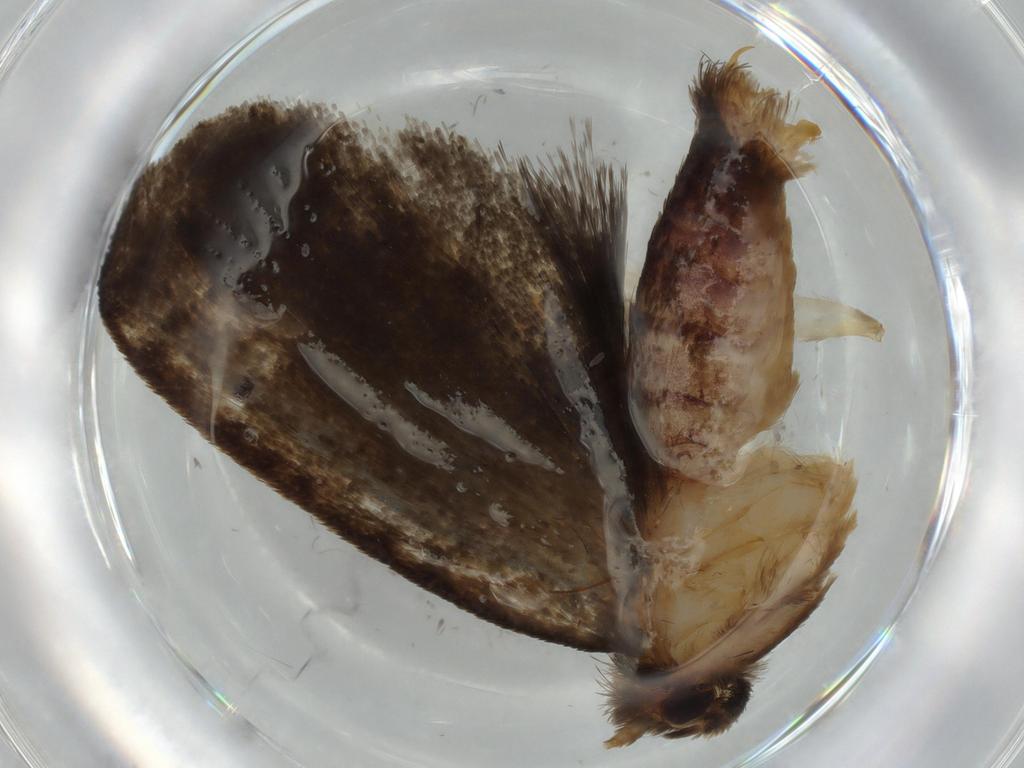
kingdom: Animalia
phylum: Arthropoda
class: Insecta
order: Lepidoptera
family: Tineidae
